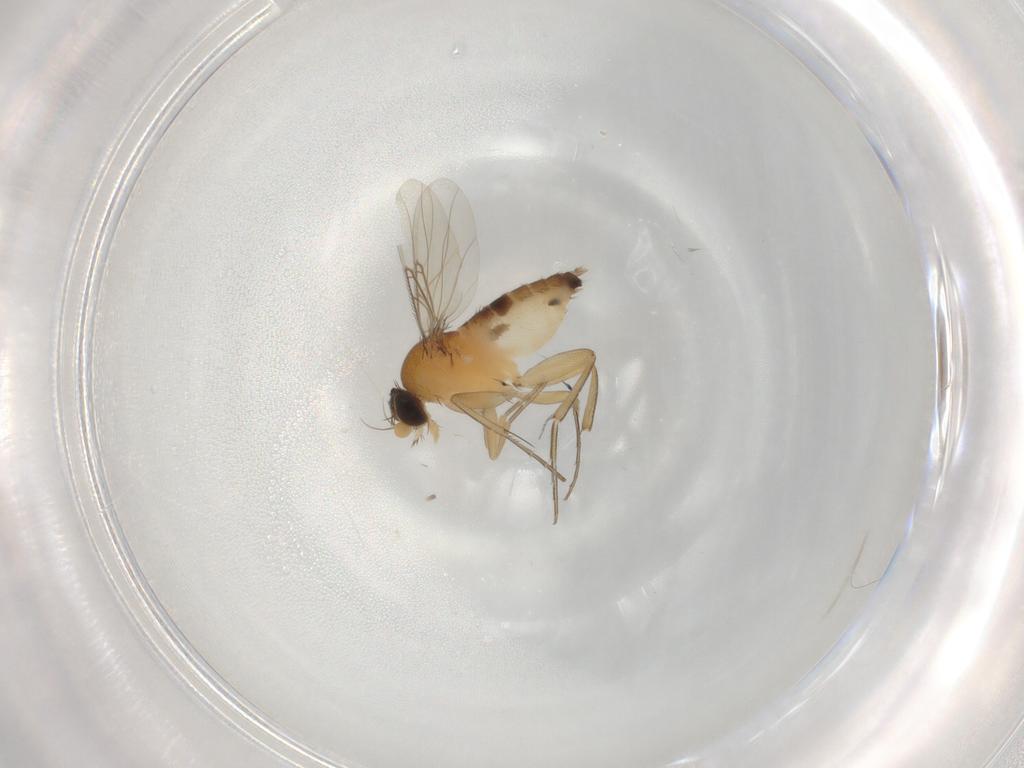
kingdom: Animalia
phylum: Arthropoda
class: Insecta
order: Diptera
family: Phoridae
